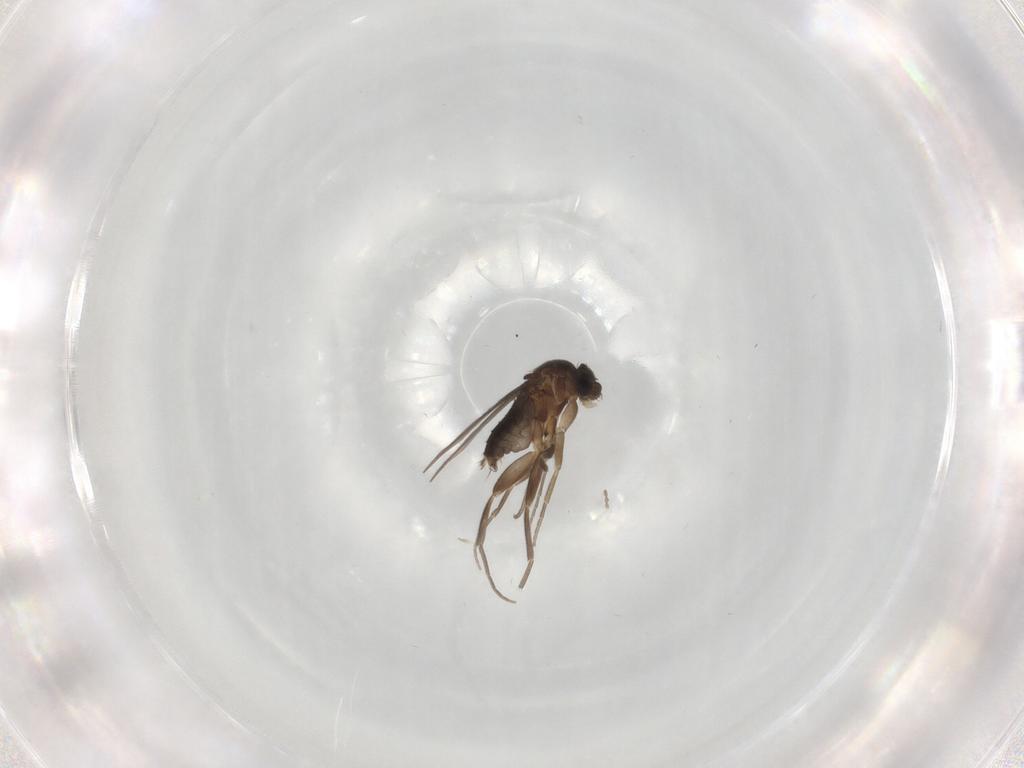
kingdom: Animalia
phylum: Arthropoda
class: Insecta
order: Diptera
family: Phoridae
